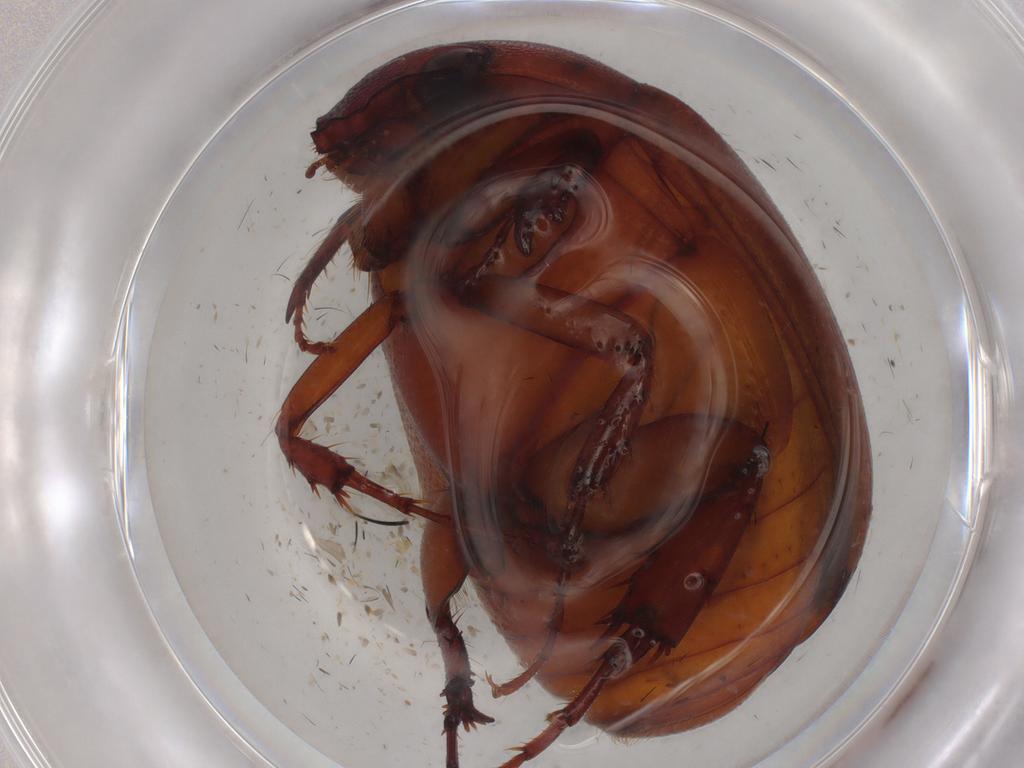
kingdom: Animalia
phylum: Arthropoda
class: Insecta
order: Coleoptera
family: Melolonthidae
